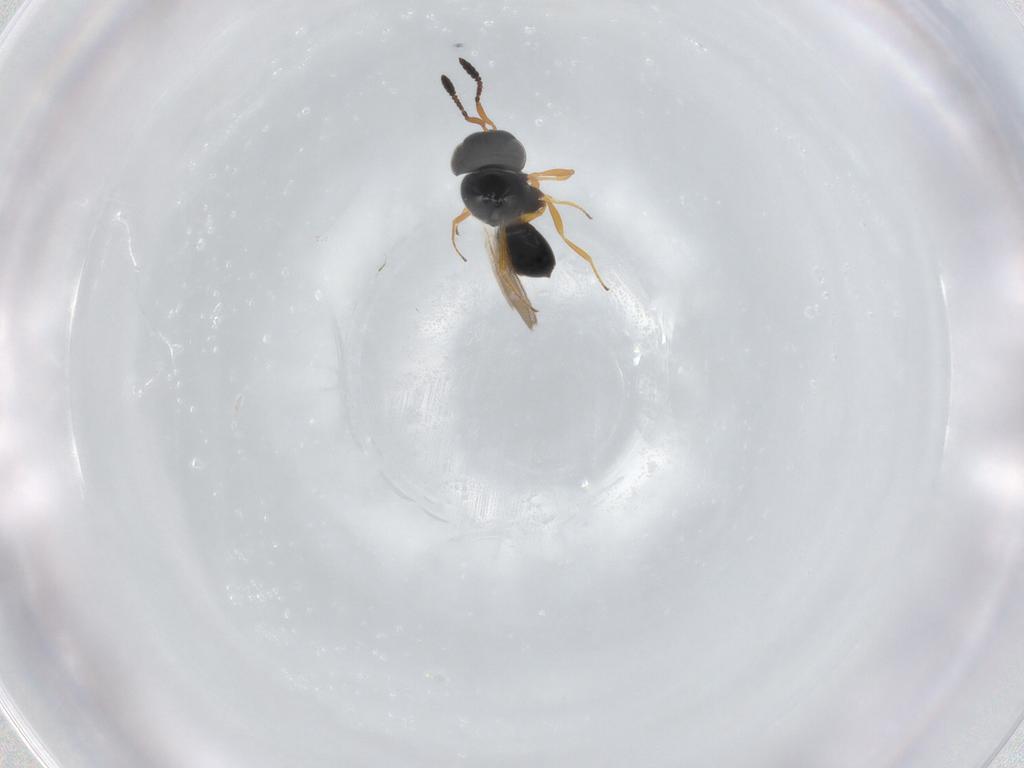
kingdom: Animalia
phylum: Arthropoda
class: Insecta
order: Hymenoptera
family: Scelionidae
